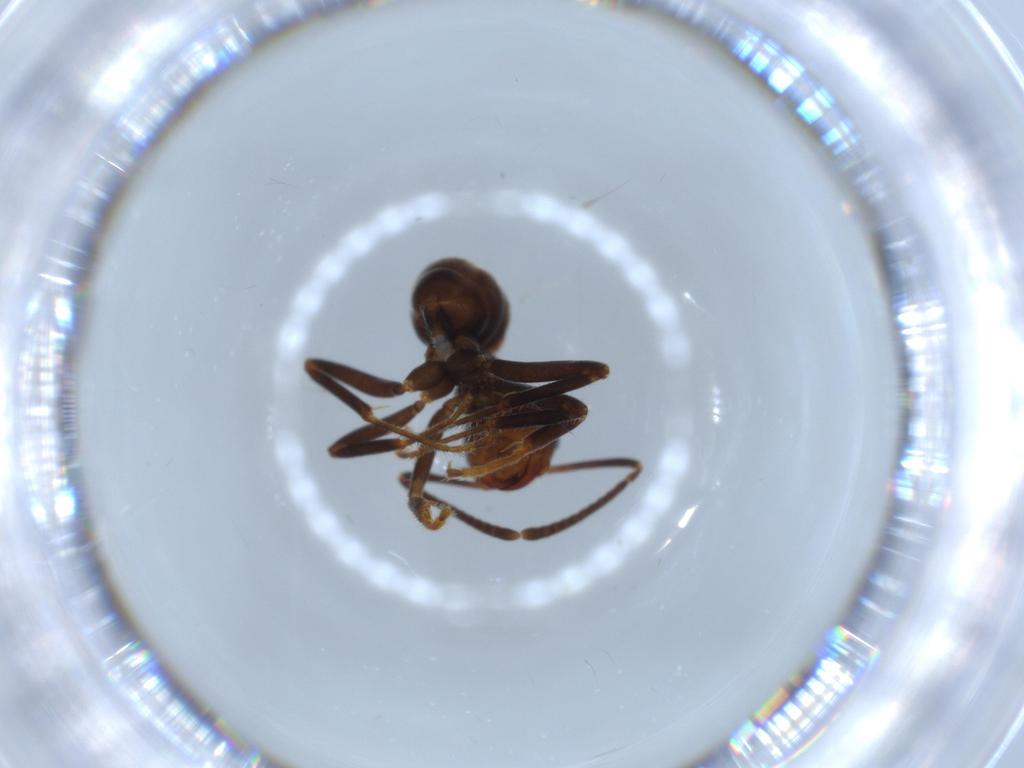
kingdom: Animalia
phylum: Arthropoda
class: Insecta
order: Hymenoptera
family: Formicidae
